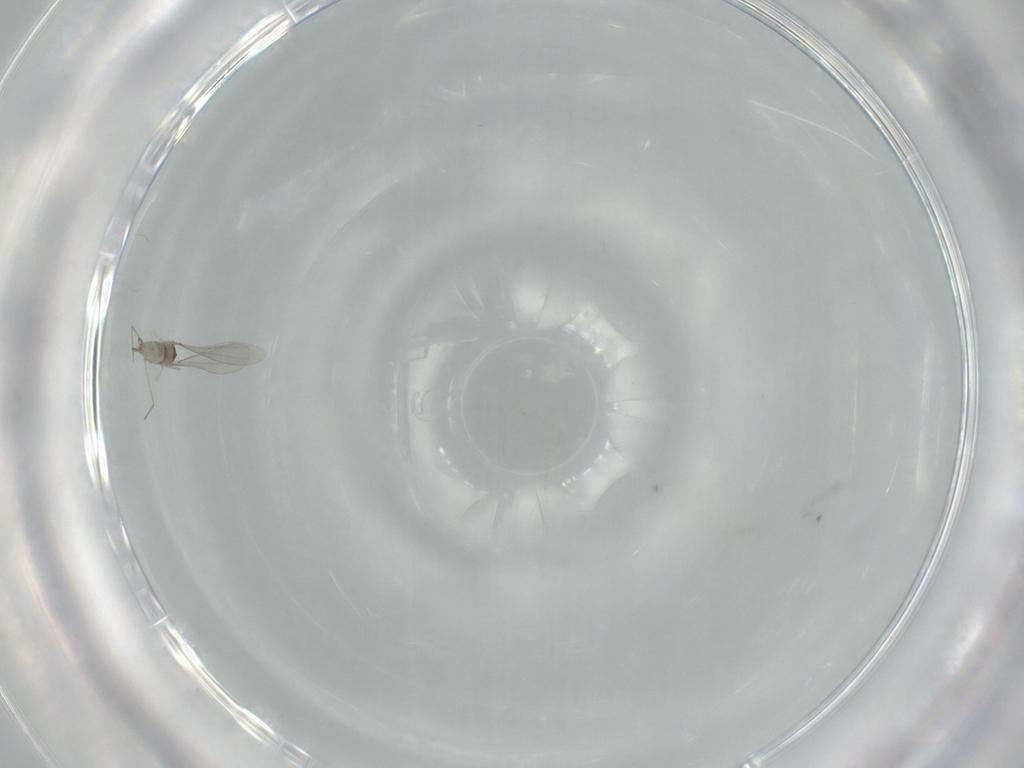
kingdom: Animalia
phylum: Arthropoda
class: Insecta
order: Diptera
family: Cecidomyiidae
